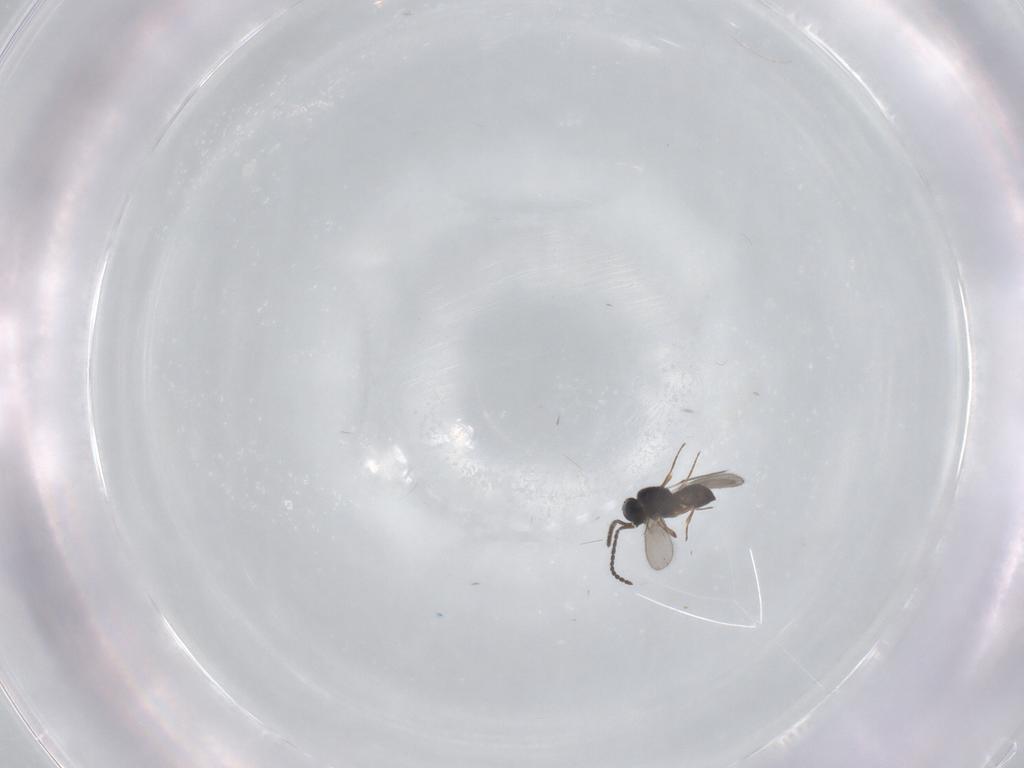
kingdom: Animalia
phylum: Arthropoda
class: Insecta
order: Hymenoptera
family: Scelionidae
